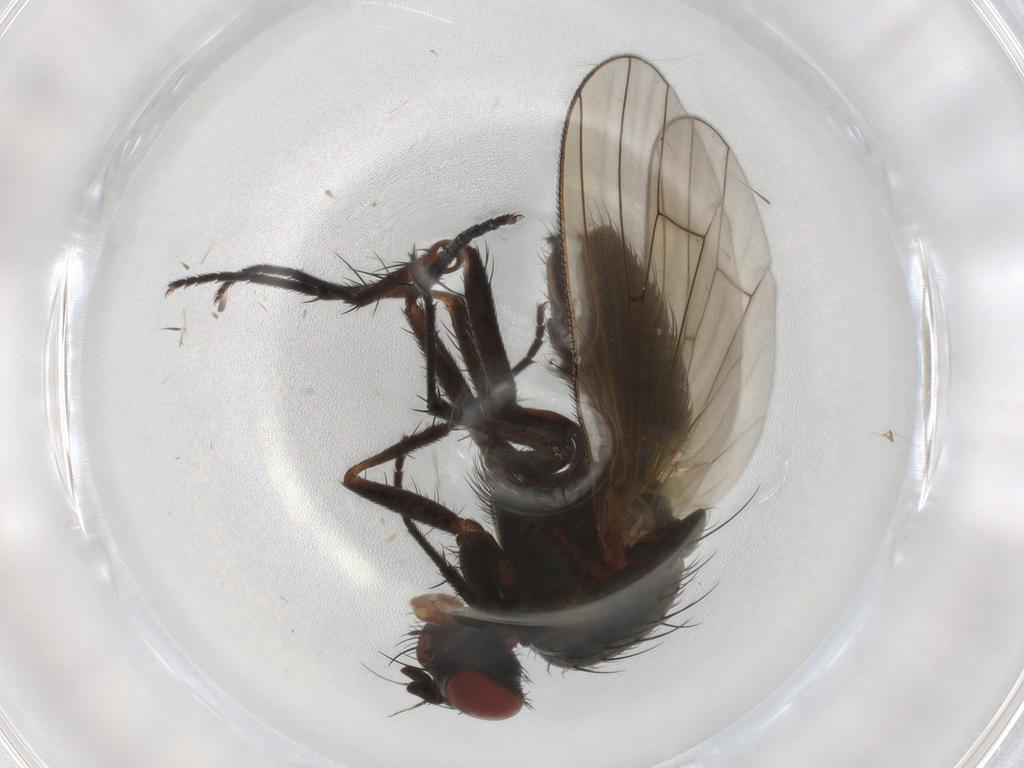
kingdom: Animalia
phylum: Arthropoda
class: Insecta
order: Diptera
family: Anthomyiidae
